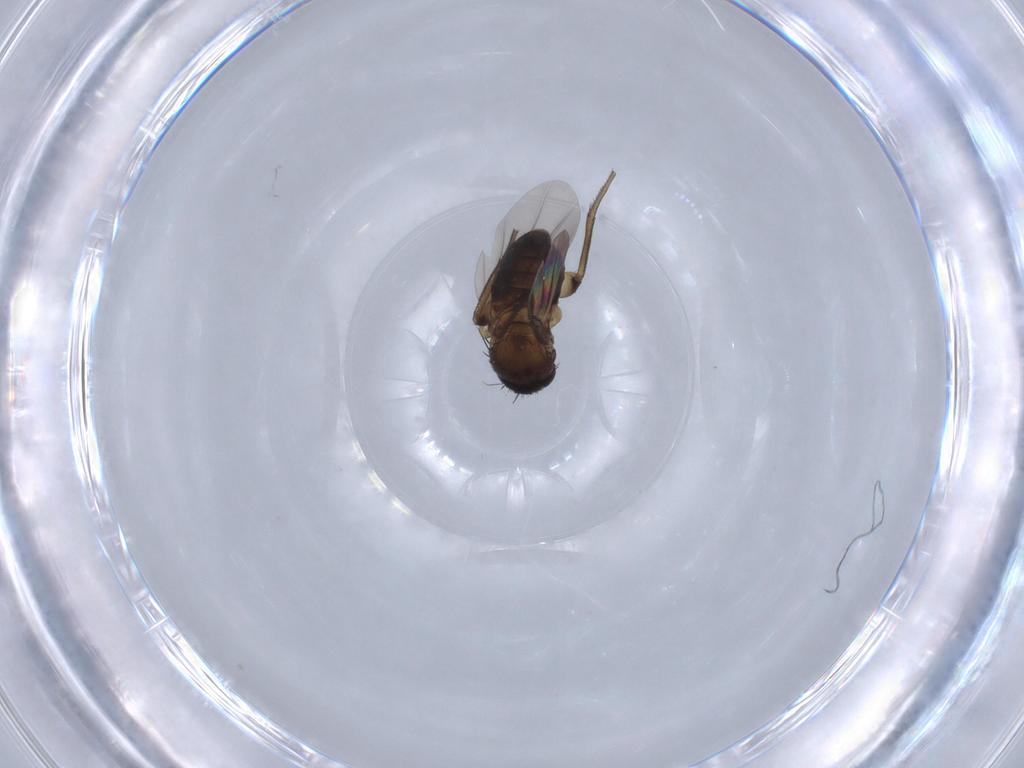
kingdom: Animalia
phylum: Arthropoda
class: Insecta
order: Diptera
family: Phoridae
